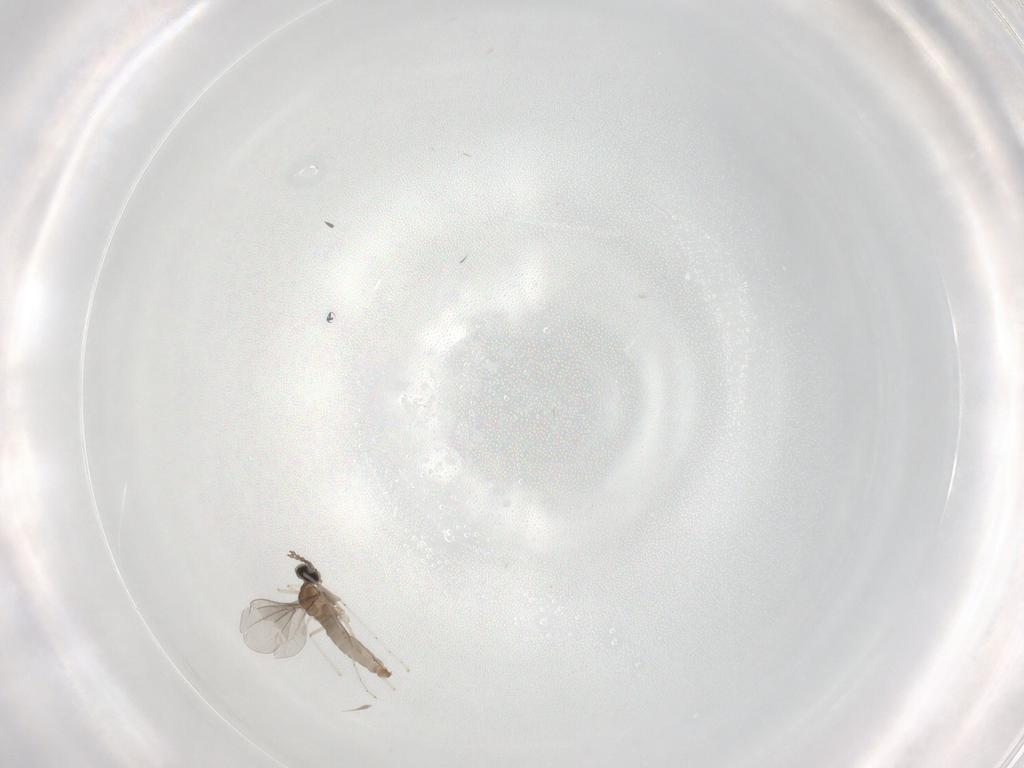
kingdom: Animalia
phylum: Arthropoda
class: Insecta
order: Diptera
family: Cecidomyiidae
